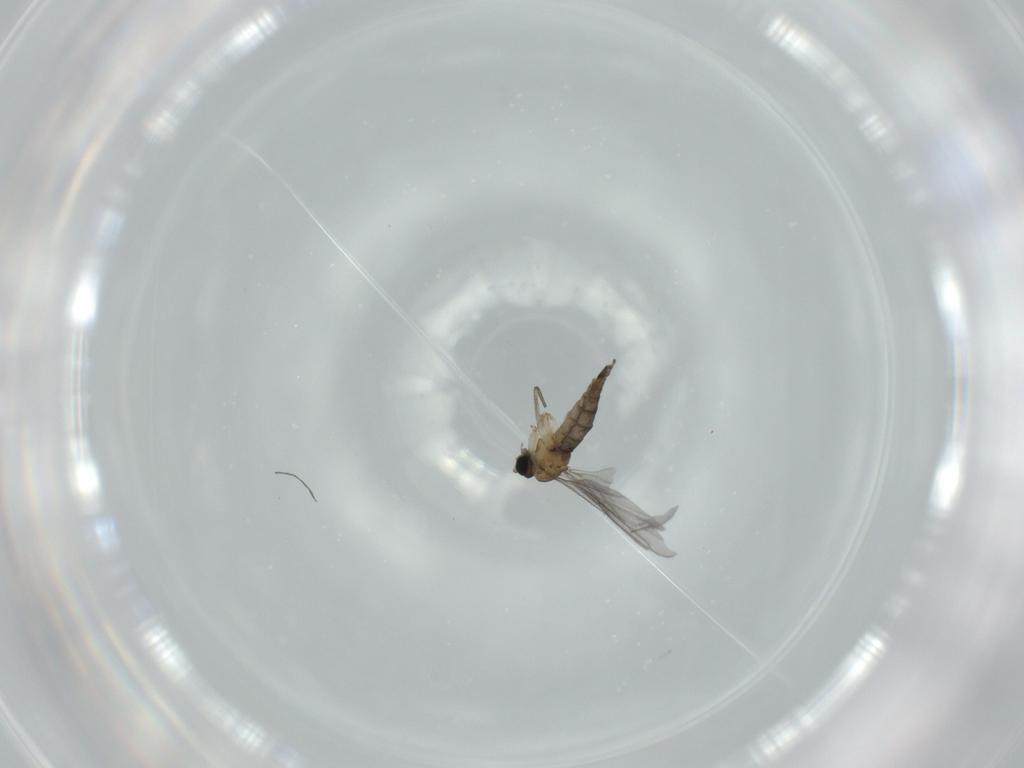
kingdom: Animalia
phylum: Arthropoda
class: Insecta
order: Diptera
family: Sciaridae
